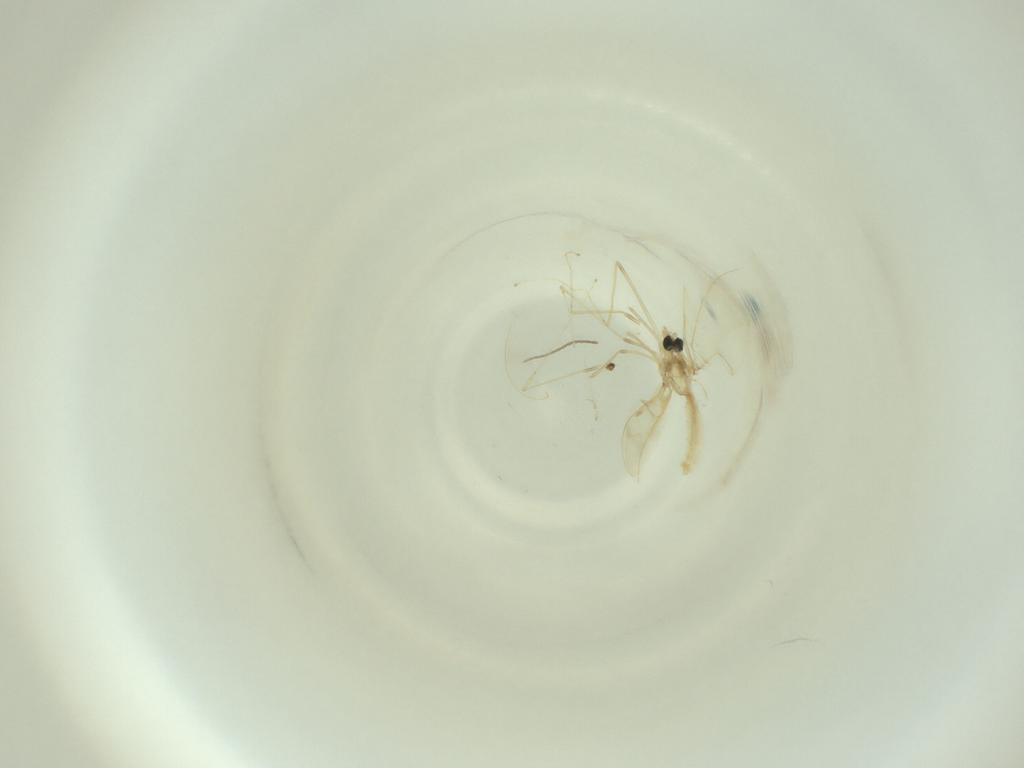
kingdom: Animalia
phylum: Arthropoda
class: Insecta
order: Diptera
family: Cecidomyiidae
